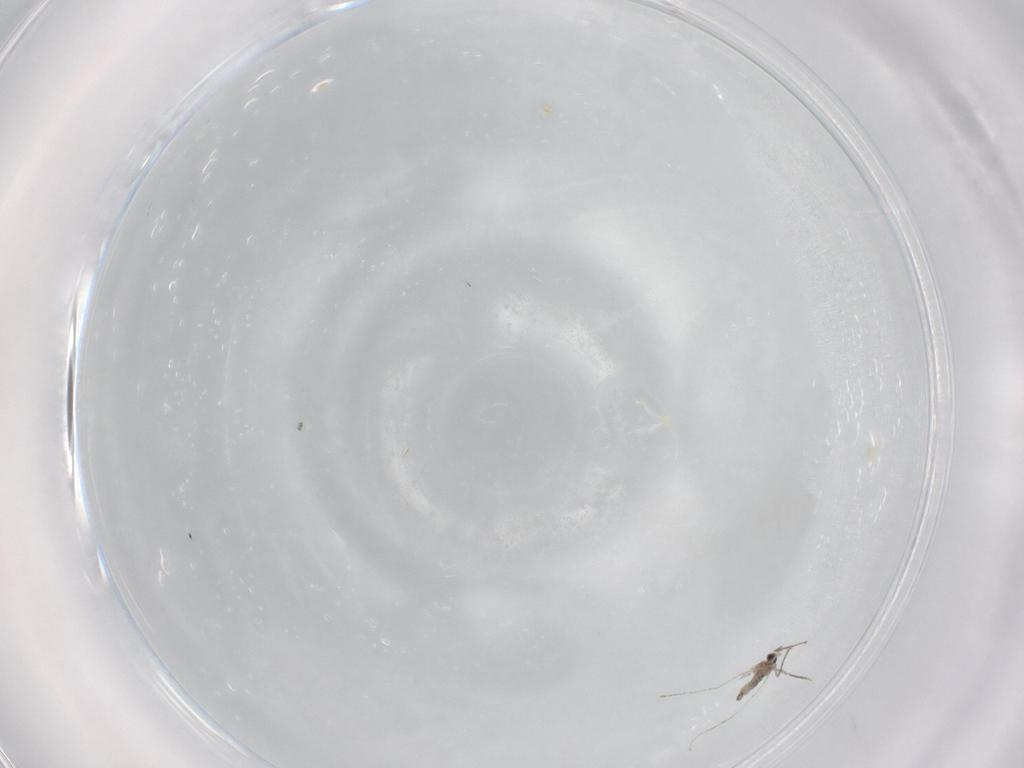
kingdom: Animalia
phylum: Arthropoda
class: Insecta
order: Diptera
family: Cecidomyiidae
